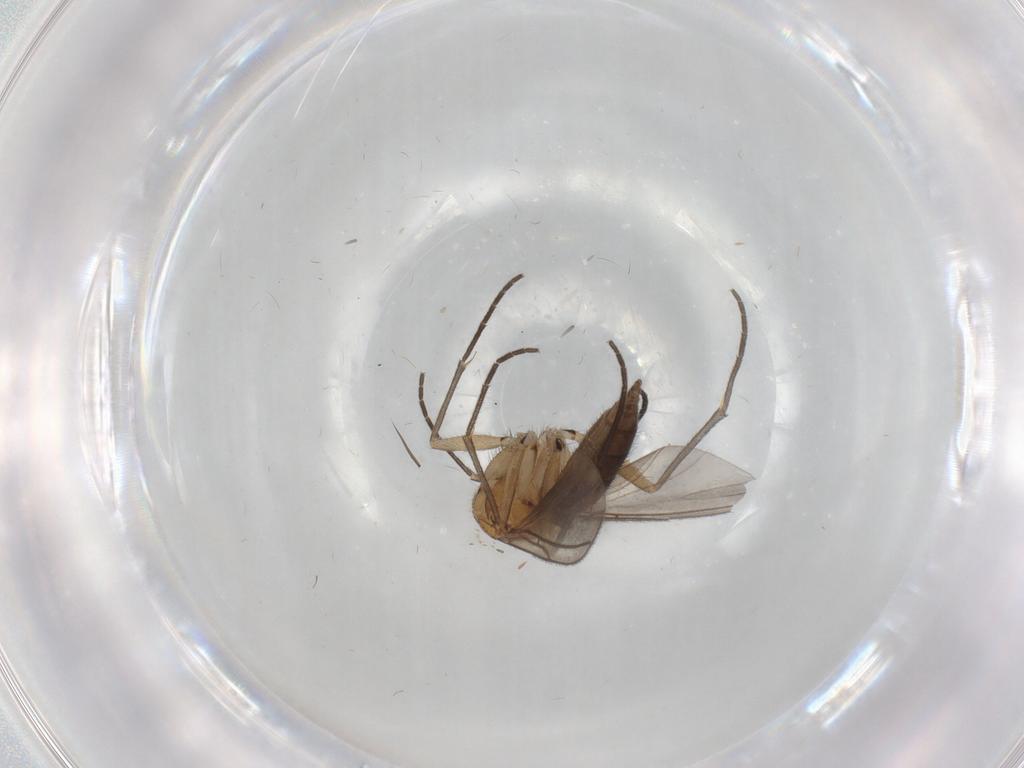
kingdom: Animalia
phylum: Arthropoda
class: Insecta
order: Diptera
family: Sciaridae
